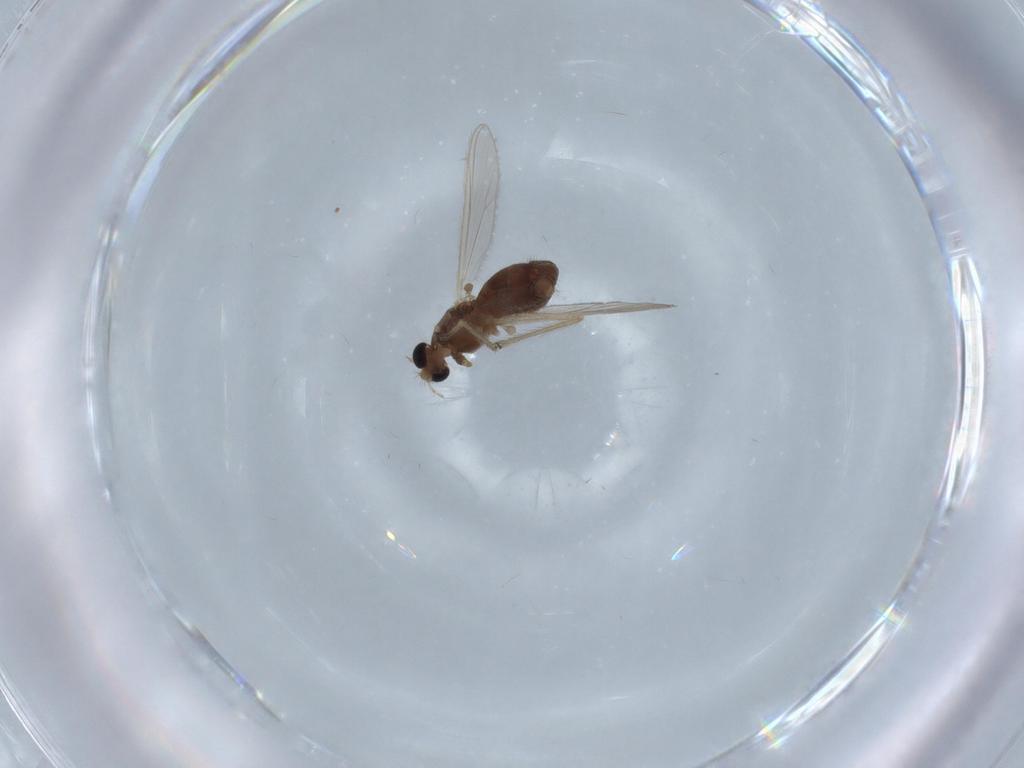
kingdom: Animalia
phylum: Arthropoda
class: Insecta
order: Diptera
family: Chironomidae
